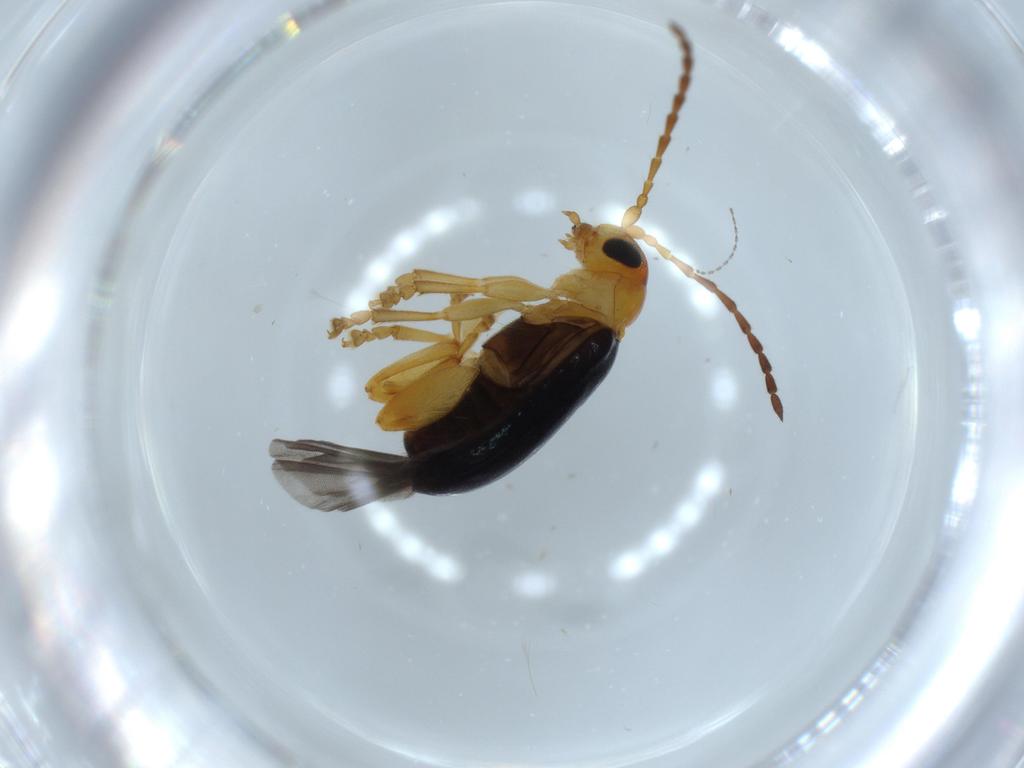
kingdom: Animalia
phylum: Arthropoda
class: Insecta
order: Coleoptera
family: Chrysomelidae
